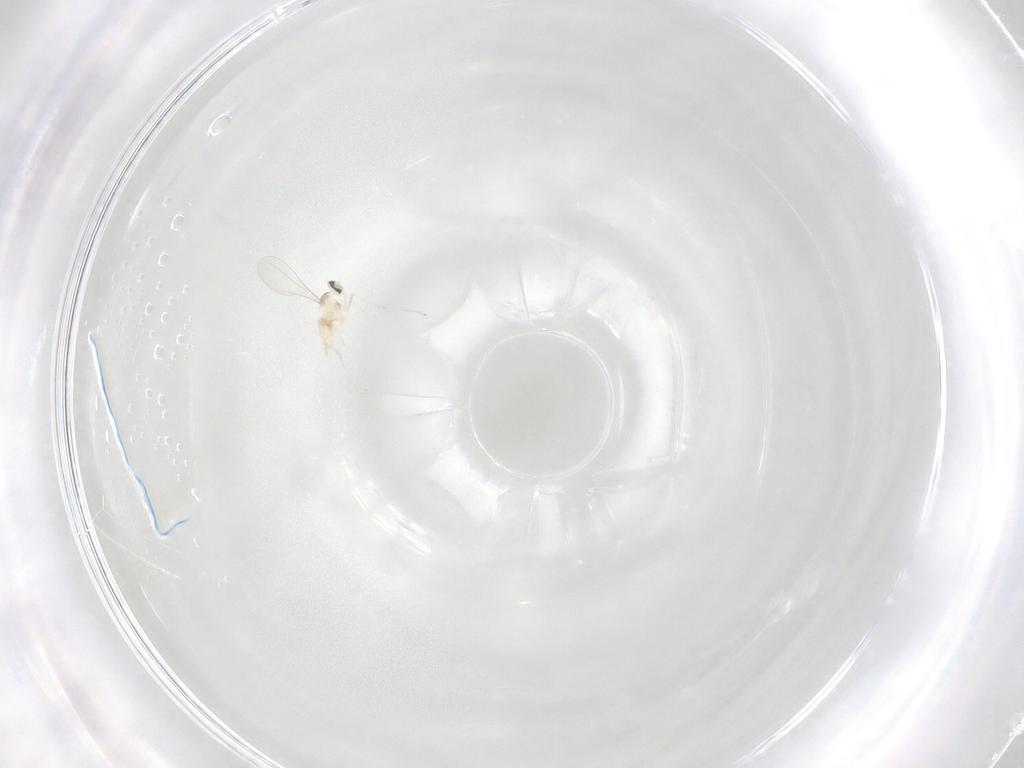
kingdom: Animalia
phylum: Arthropoda
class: Insecta
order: Diptera
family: Cecidomyiidae
